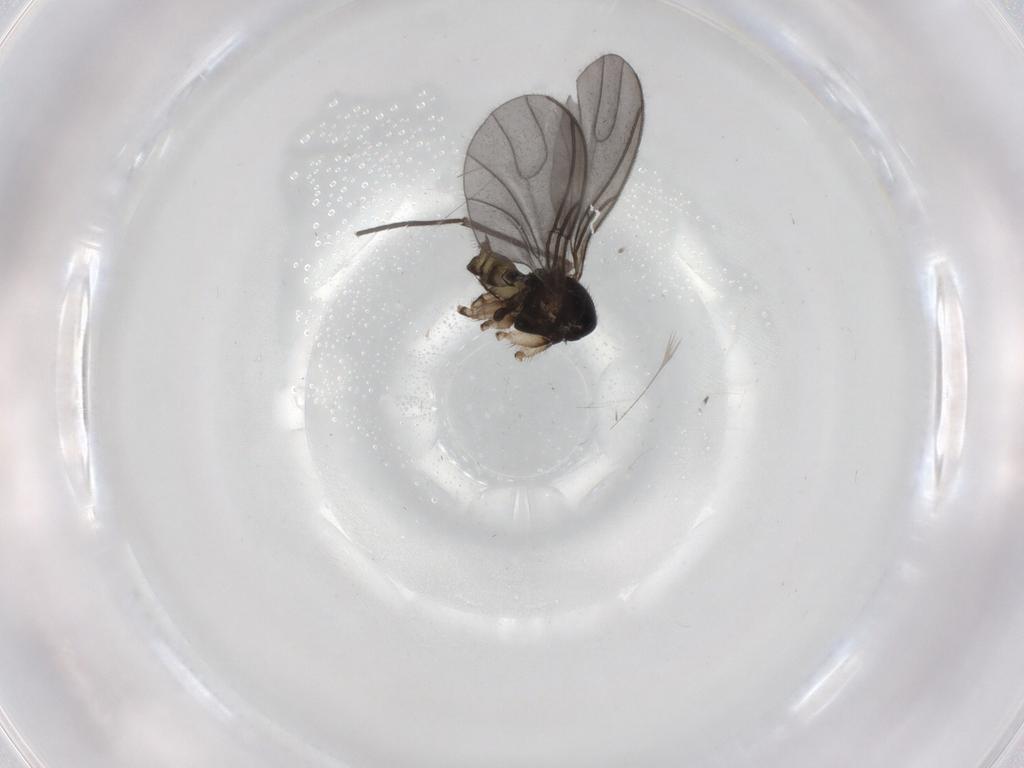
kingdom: Animalia
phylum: Arthropoda
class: Insecta
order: Diptera
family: Sciaridae
